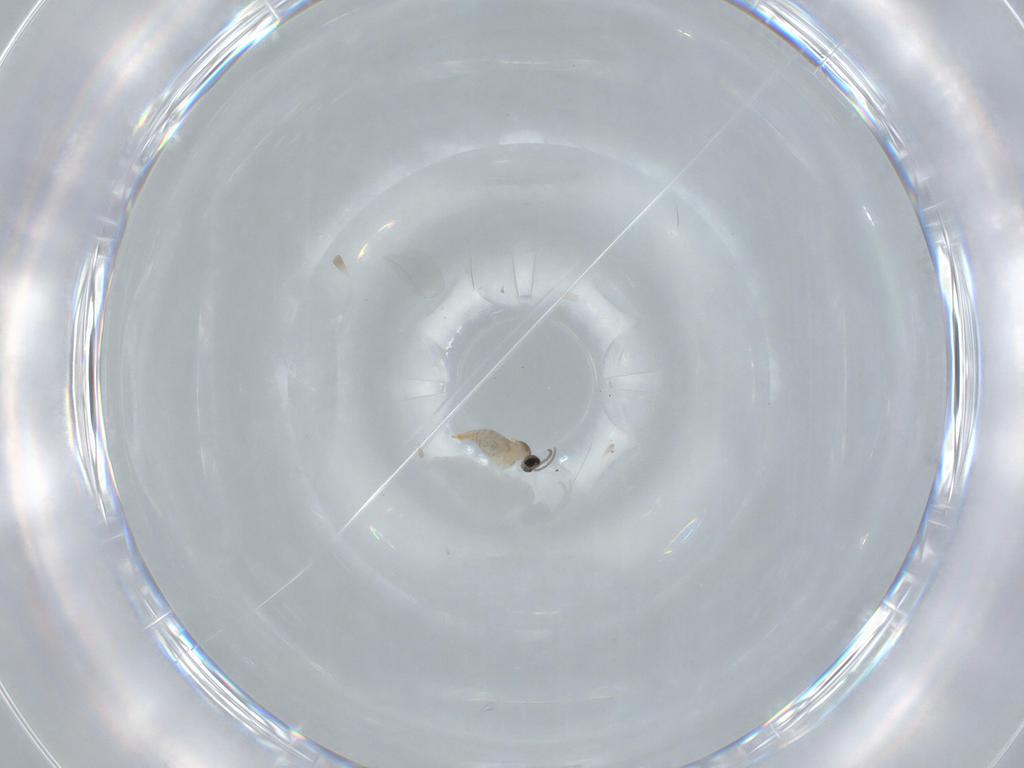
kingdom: Animalia
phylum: Arthropoda
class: Insecta
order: Diptera
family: Cecidomyiidae
